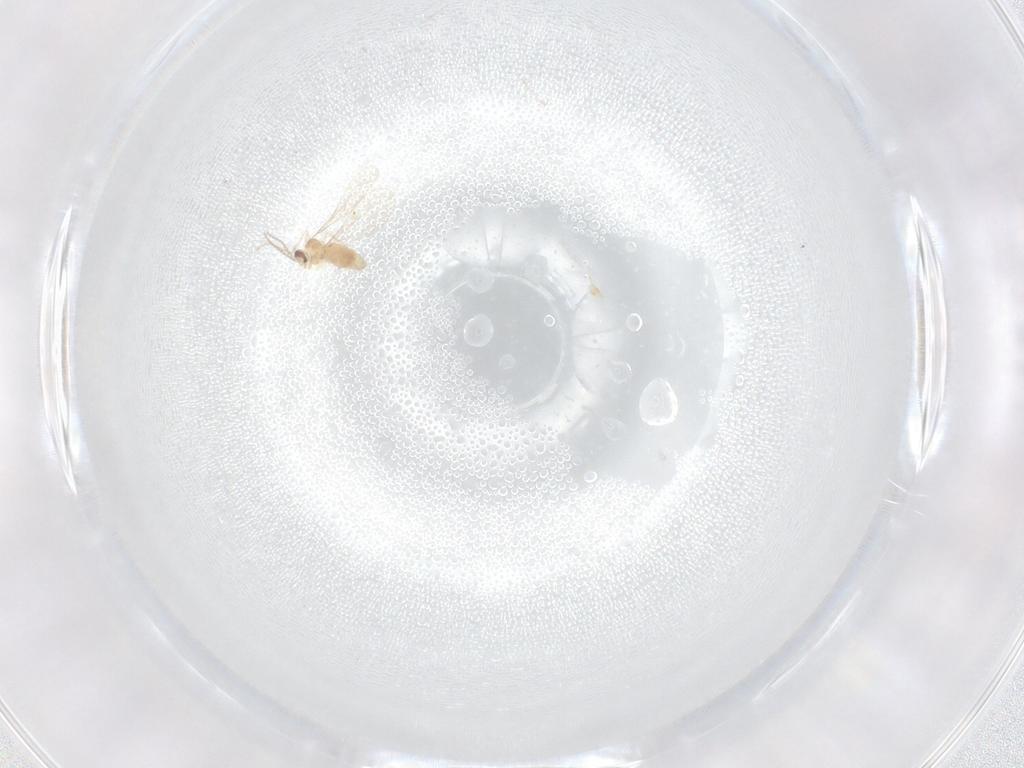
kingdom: Animalia
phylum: Arthropoda
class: Insecta
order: Diptera
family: Cecidomyiidae
